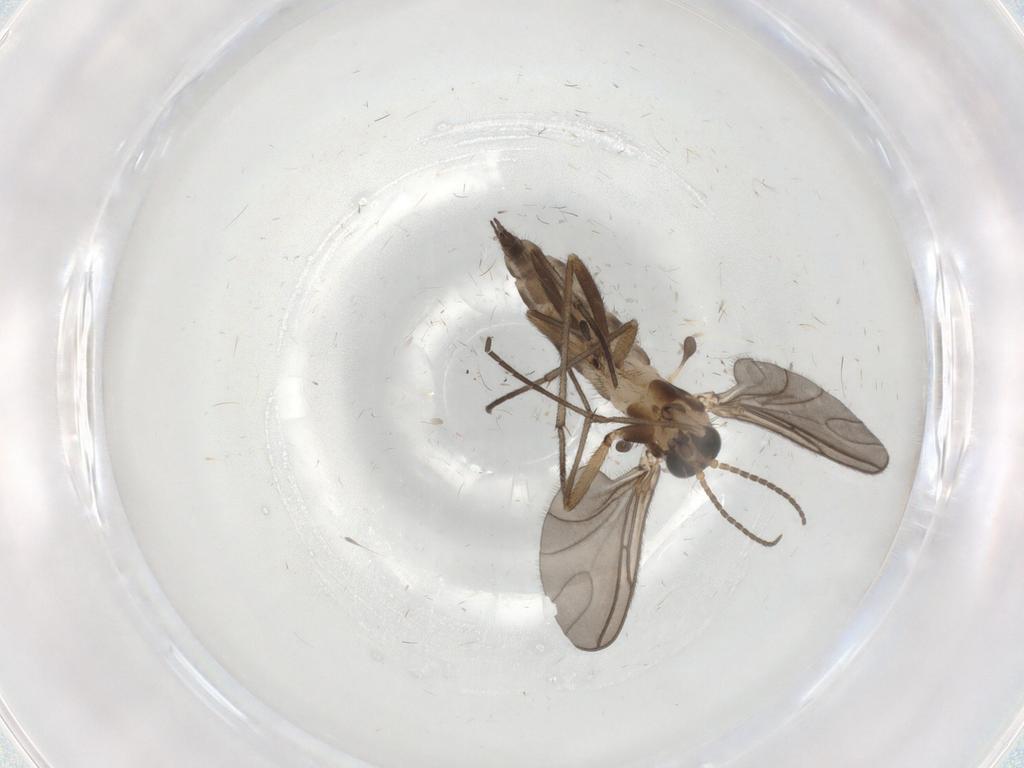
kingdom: Animalia
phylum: Arthropoda
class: Insecta
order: Diptera
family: Sciaridae
